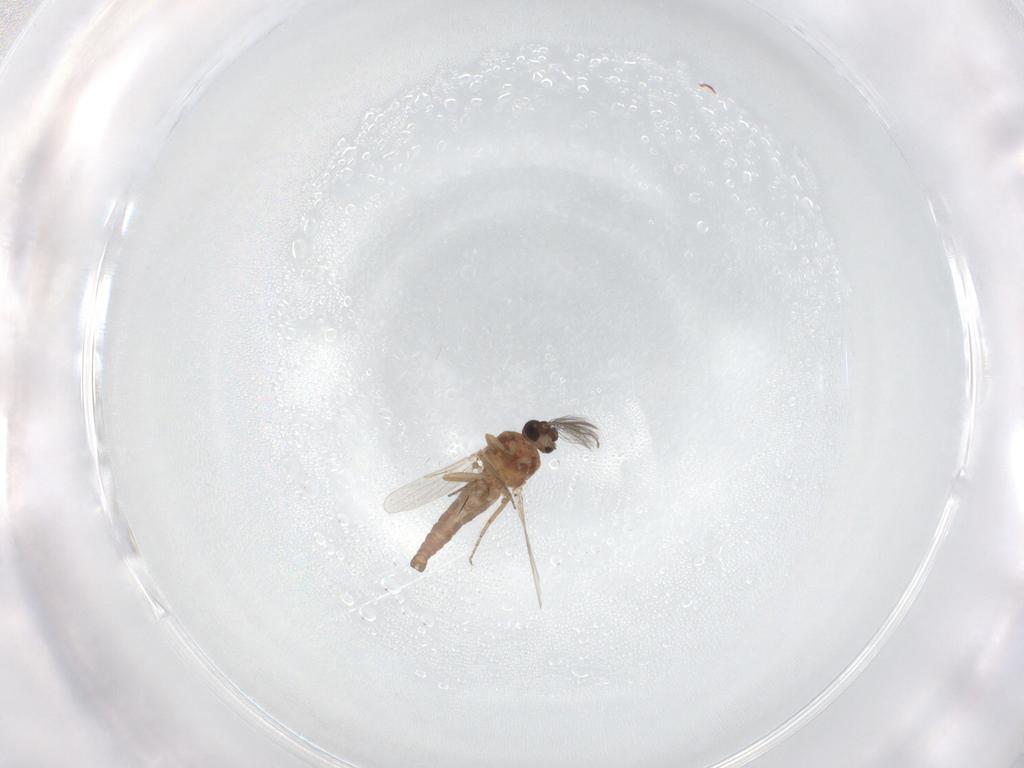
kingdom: Animalia
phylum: Arthropoda
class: Insecta
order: Diptera
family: Ceratopogonidae
